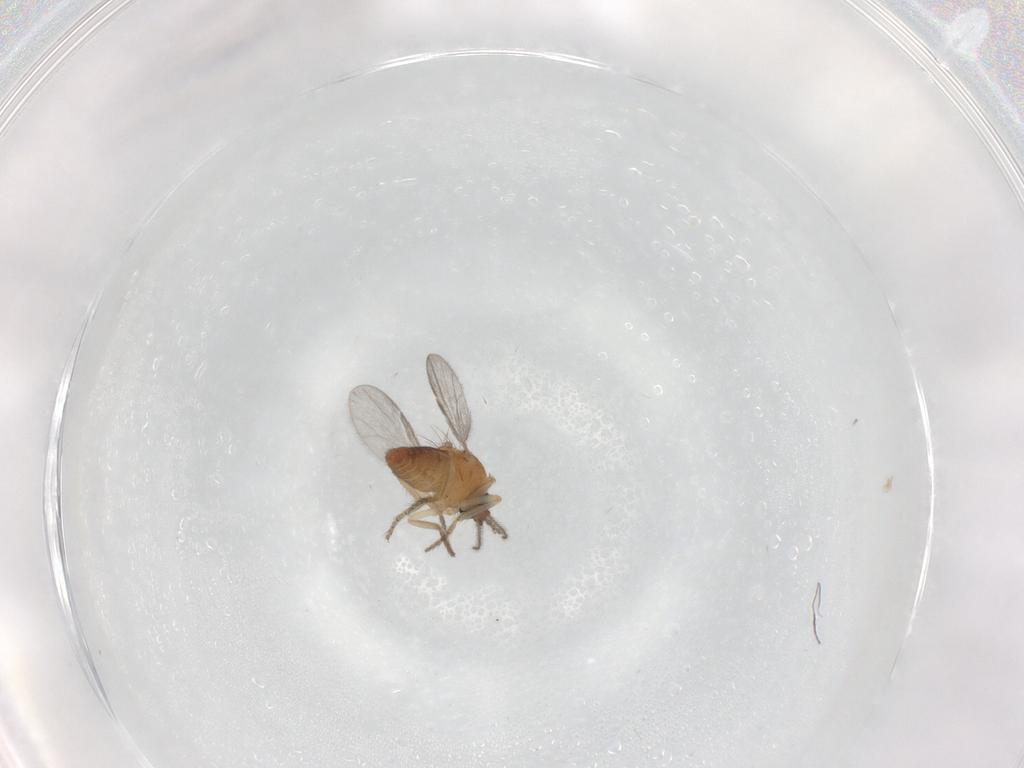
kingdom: Animalia
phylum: Arthropoda
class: Insecta
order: Diptera
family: Ceratopogonidae
